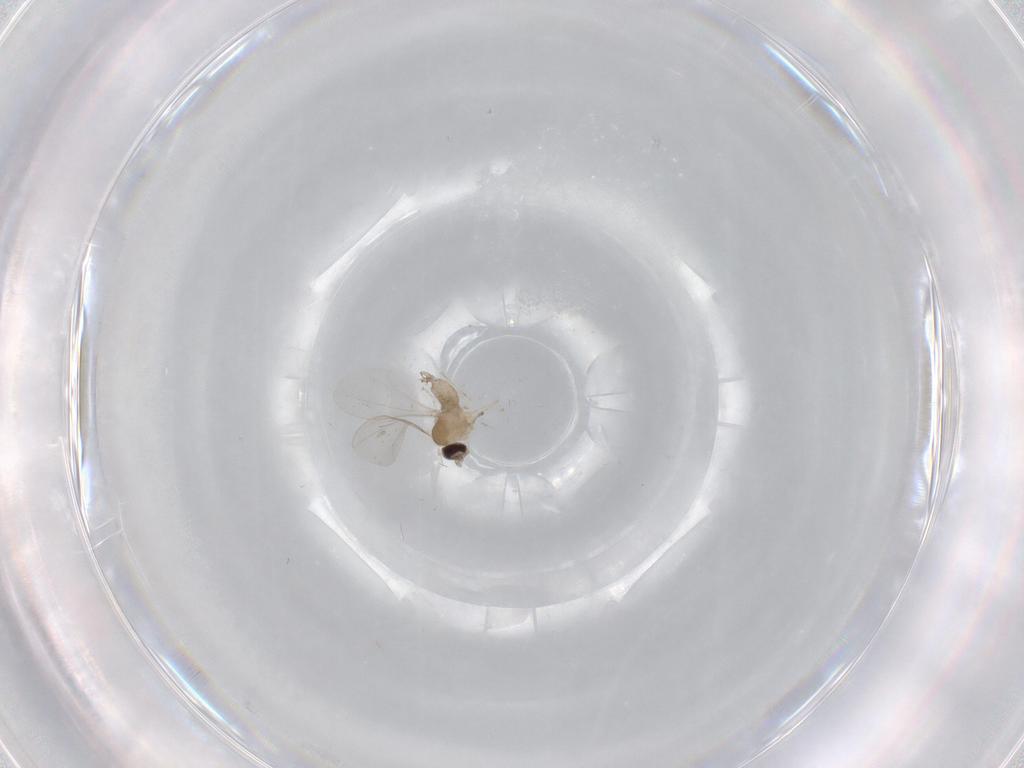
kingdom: Animalia
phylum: Arthropoda
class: Insecta
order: Diptera
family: Cecidomyiidae
